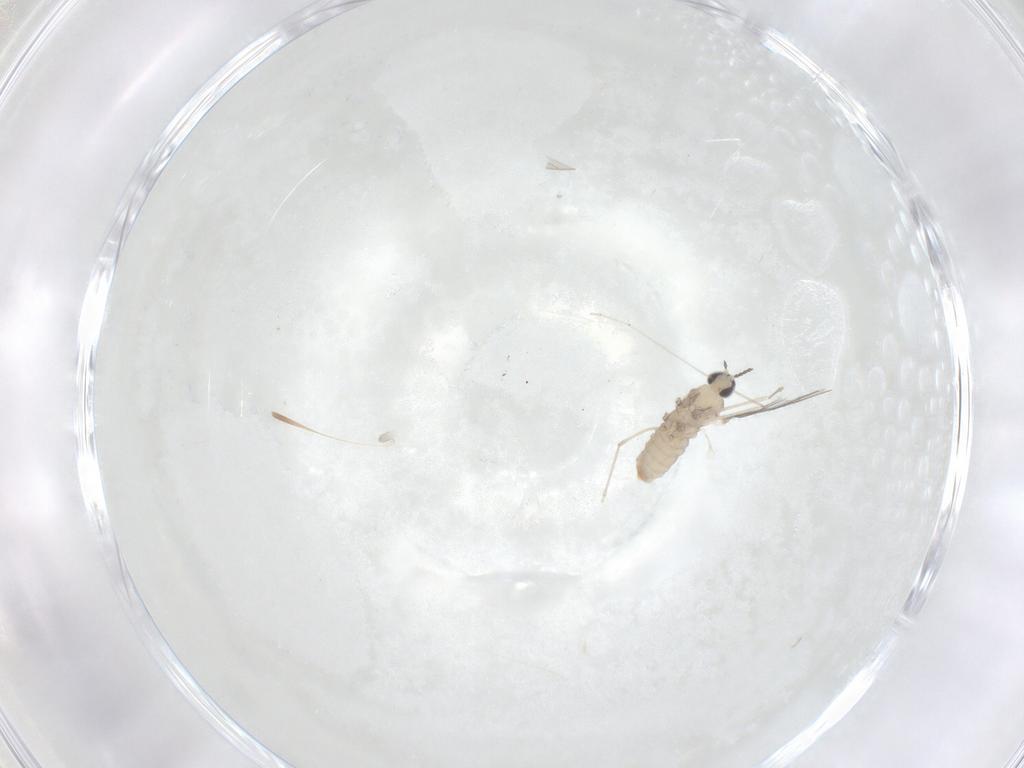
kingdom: Animalia
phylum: Arthropoda
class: Insecta
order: Diptera
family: Cecidomyiidae
